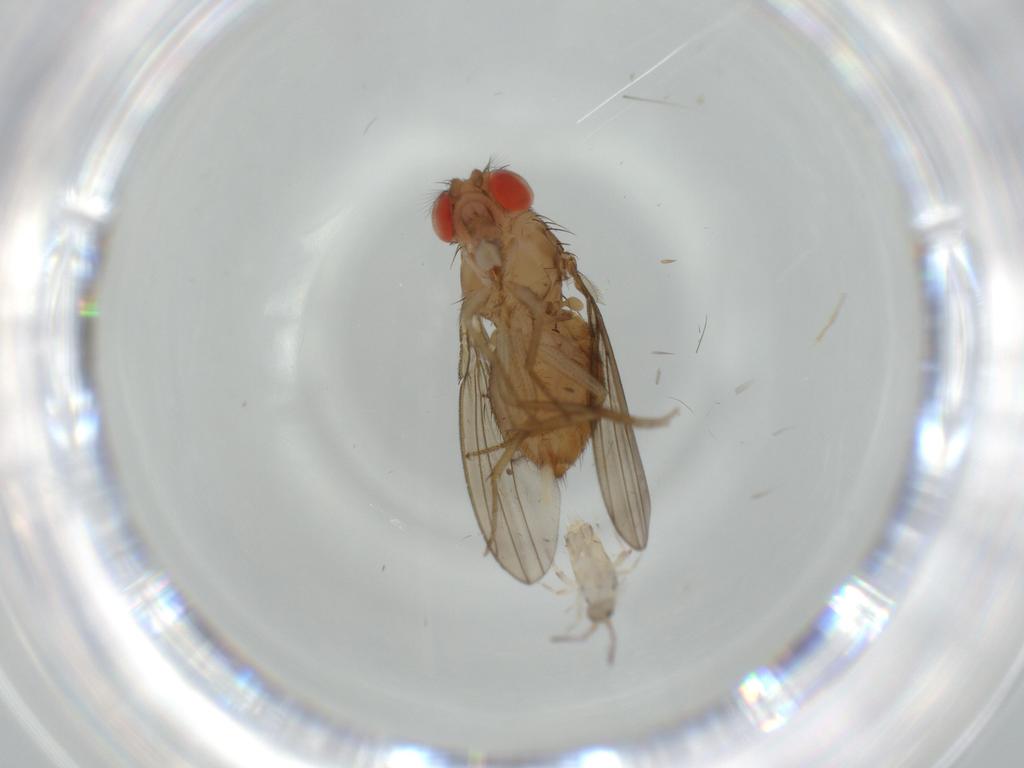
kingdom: Animalia
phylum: Arthropoda
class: Insecta
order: Diptera
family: Drosophilidae
